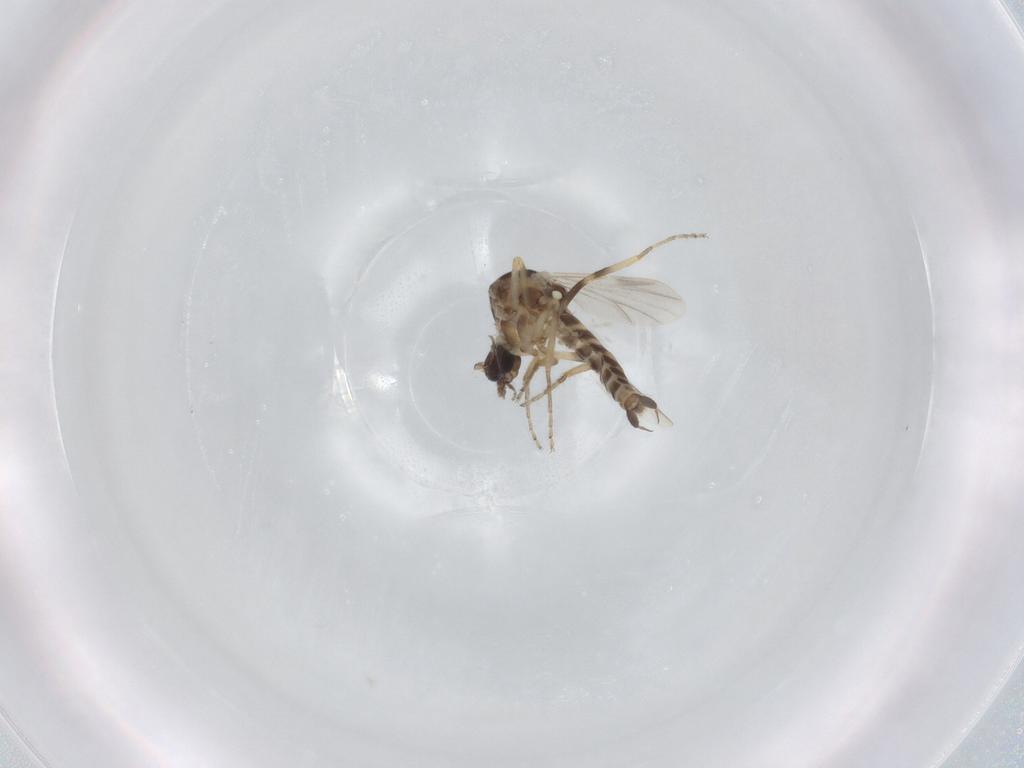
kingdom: Animalia
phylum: Arthropoda
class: Insecta
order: Diptera
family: Ceratopogonidae
